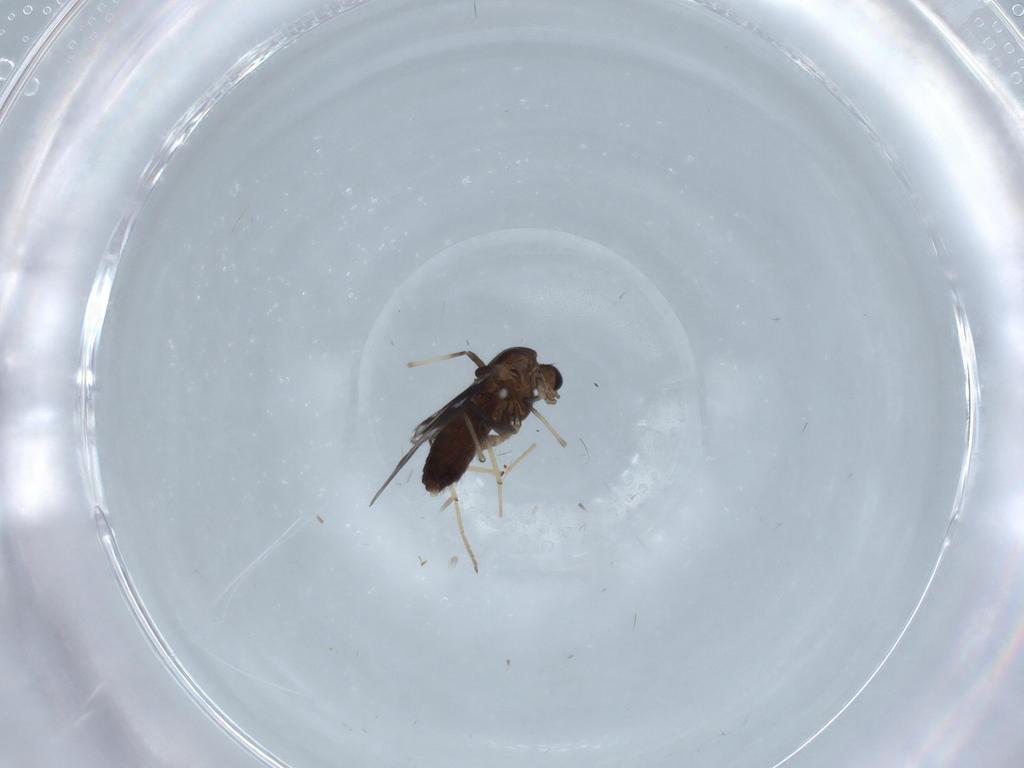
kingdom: Animalia
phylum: Arthropoda
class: Insecta
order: Diptera
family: Chironomidae
